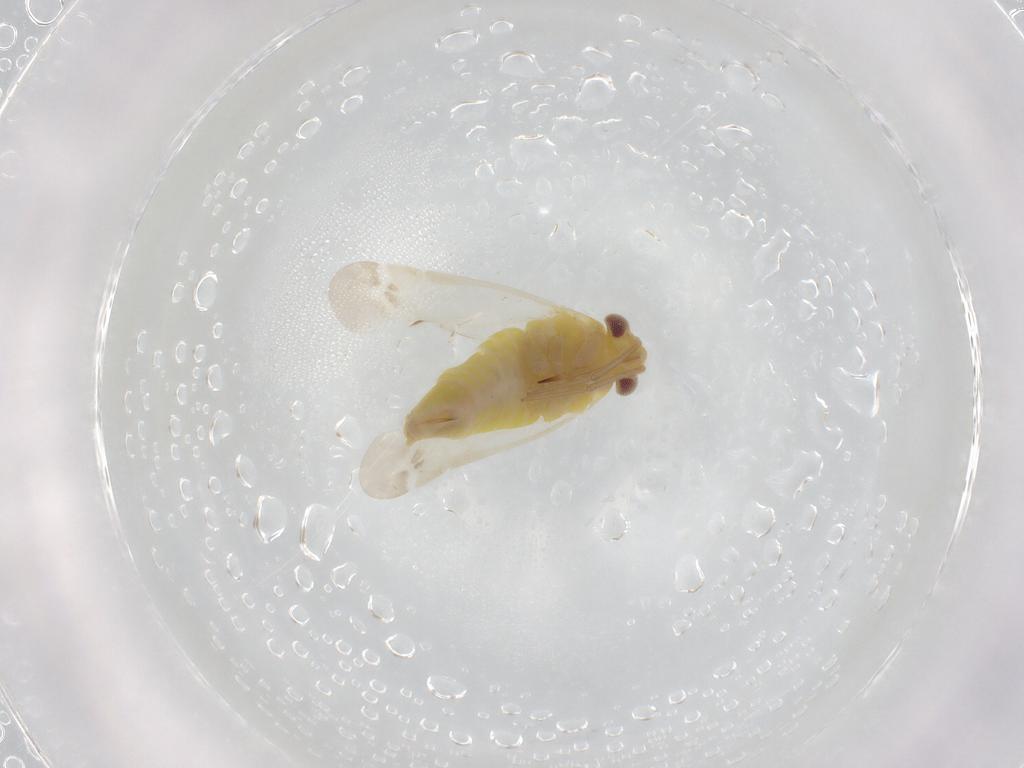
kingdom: Animalia
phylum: Arthropoda
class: Insecta
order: Hemiptera
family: Miridae
